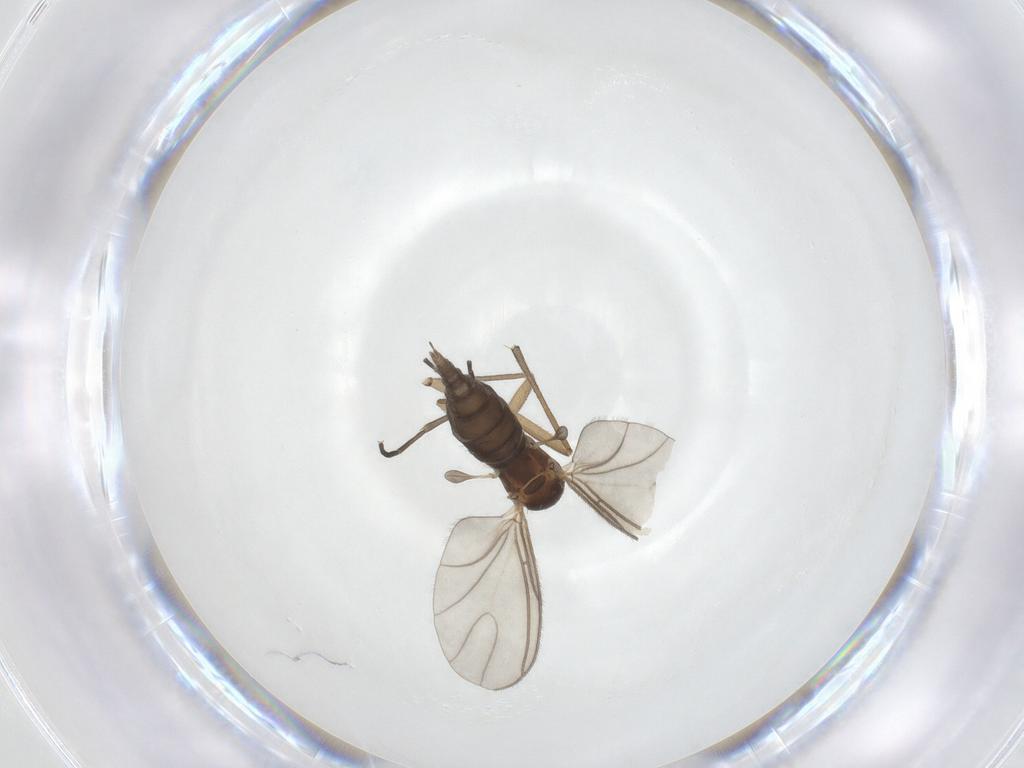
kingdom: Animalia
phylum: Arthropoda
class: Insecta
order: Diptera
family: Sciaridae
